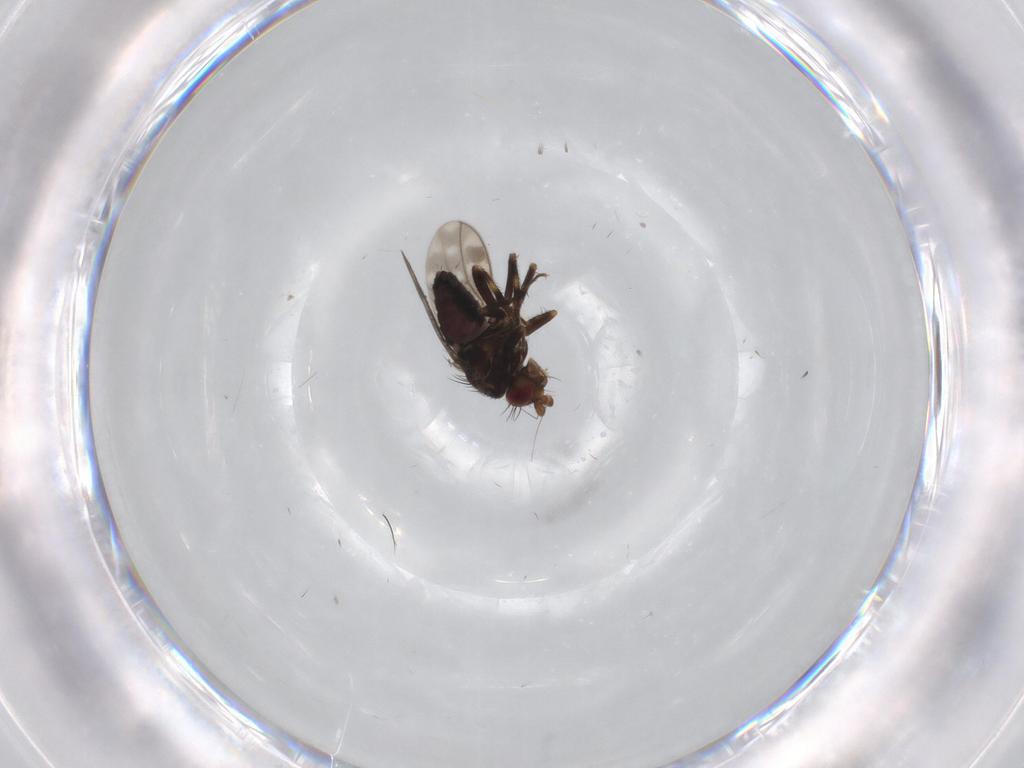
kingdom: Animalia
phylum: Arthropoda
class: Insecta
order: Diptera
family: Sphaeroceridae
